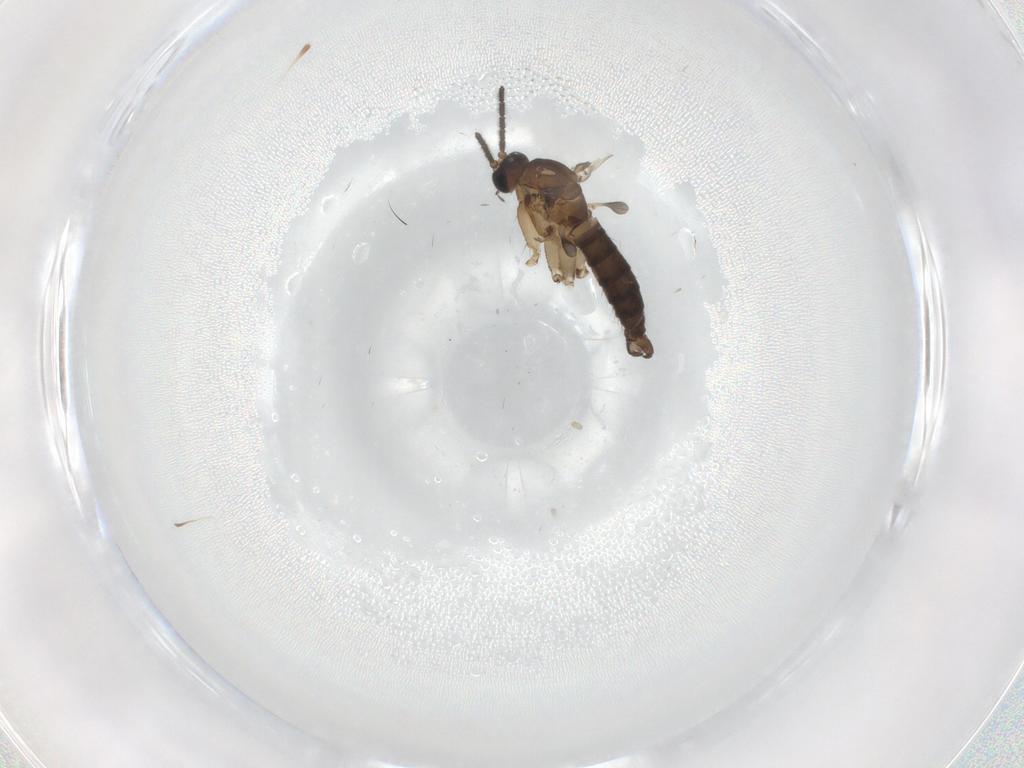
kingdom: Animalia
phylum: Arthropoda
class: Insecta
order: Diptera
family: Sciaridae
